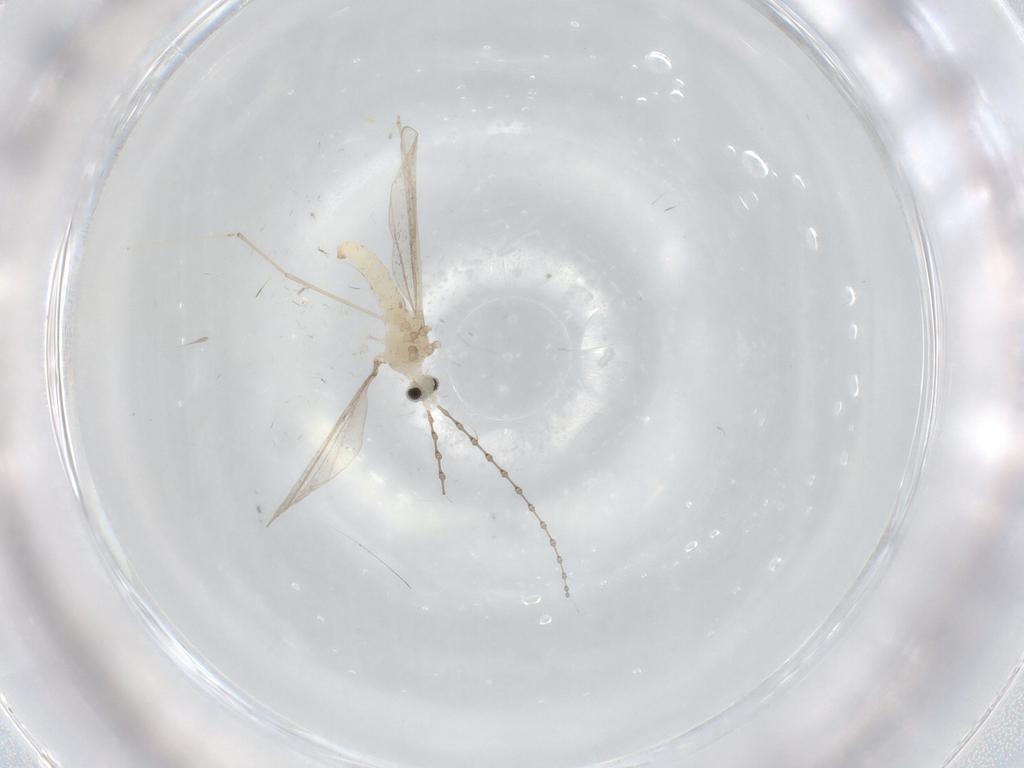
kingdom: Animalia
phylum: Arthropoda
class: Insecta
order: Diptera
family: Cecidomyiidae
